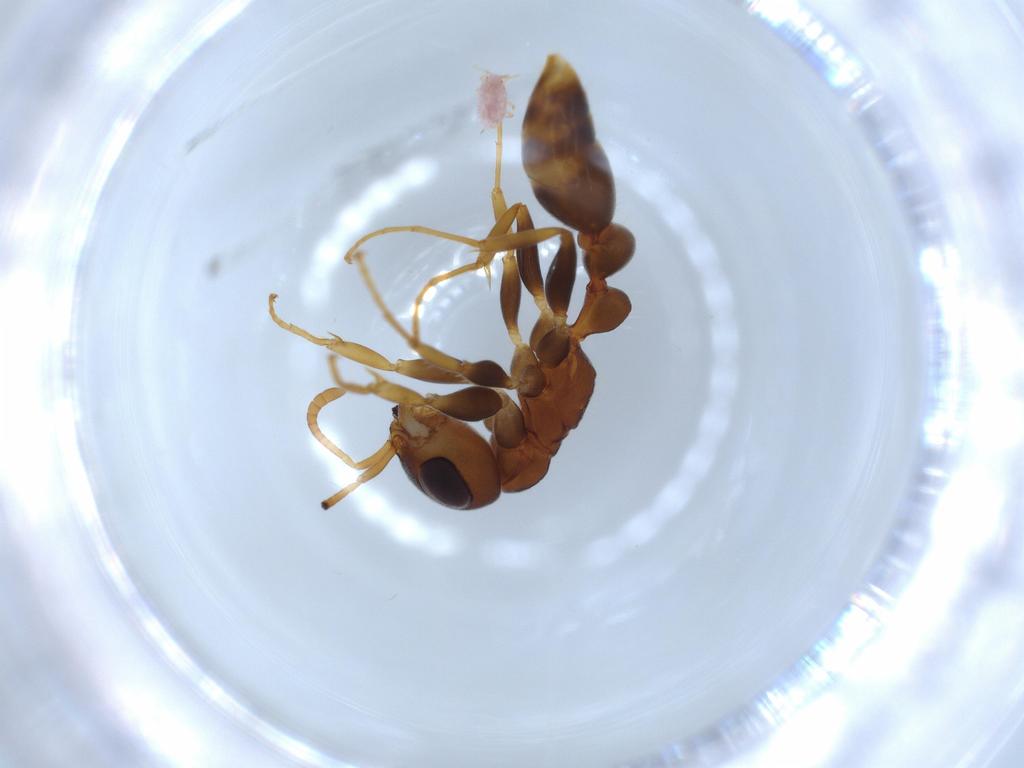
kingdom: Animalia
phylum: Arthropoda
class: Insecta
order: Hymenoptera
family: Formicidae
